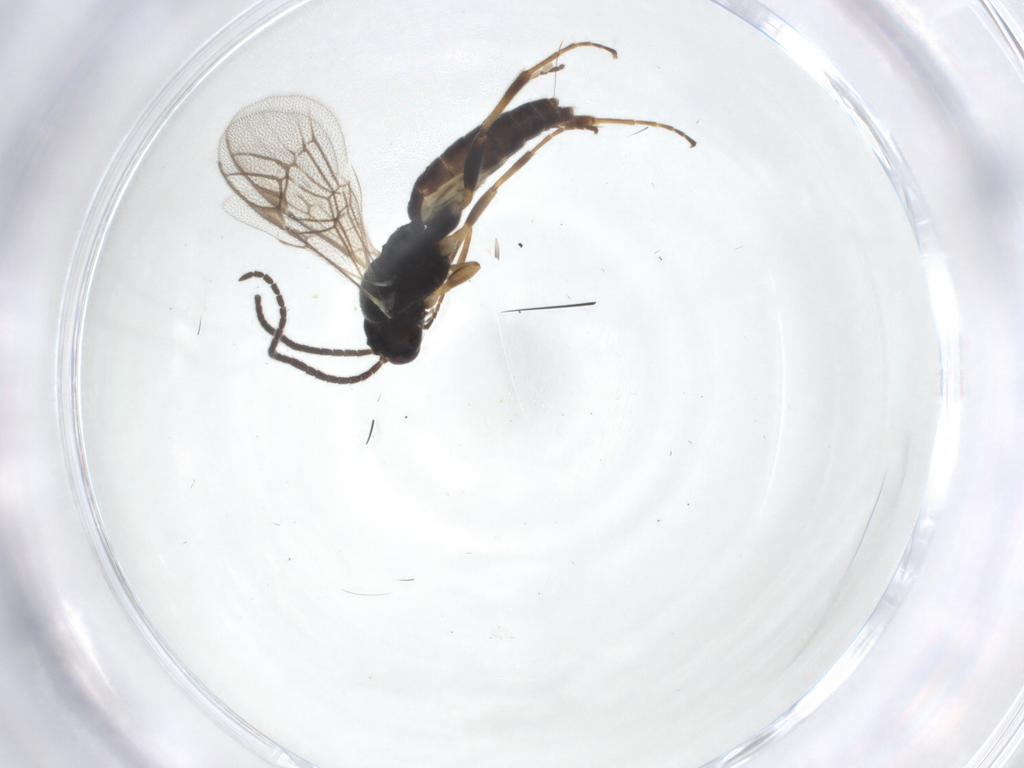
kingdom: Animalia
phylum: Arthropoda
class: Insecta
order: Hymenoptera
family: Ichneumonidae
